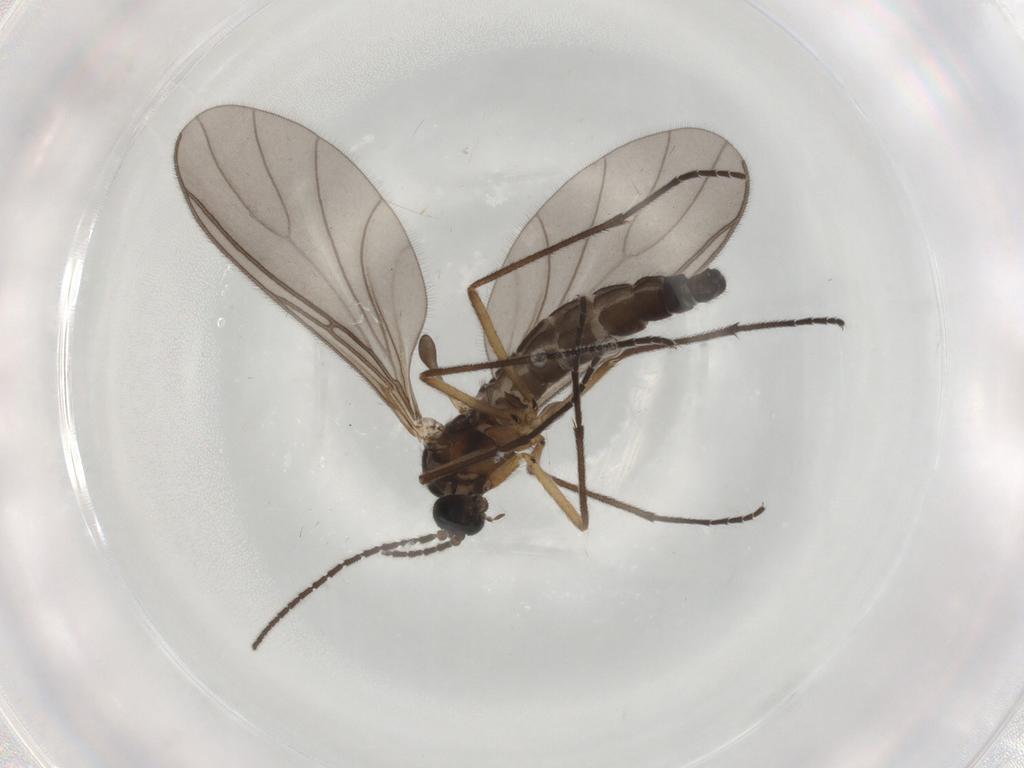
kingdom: Animalia
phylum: Arthropoda
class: Insecta
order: Diptera
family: Sciaridae
